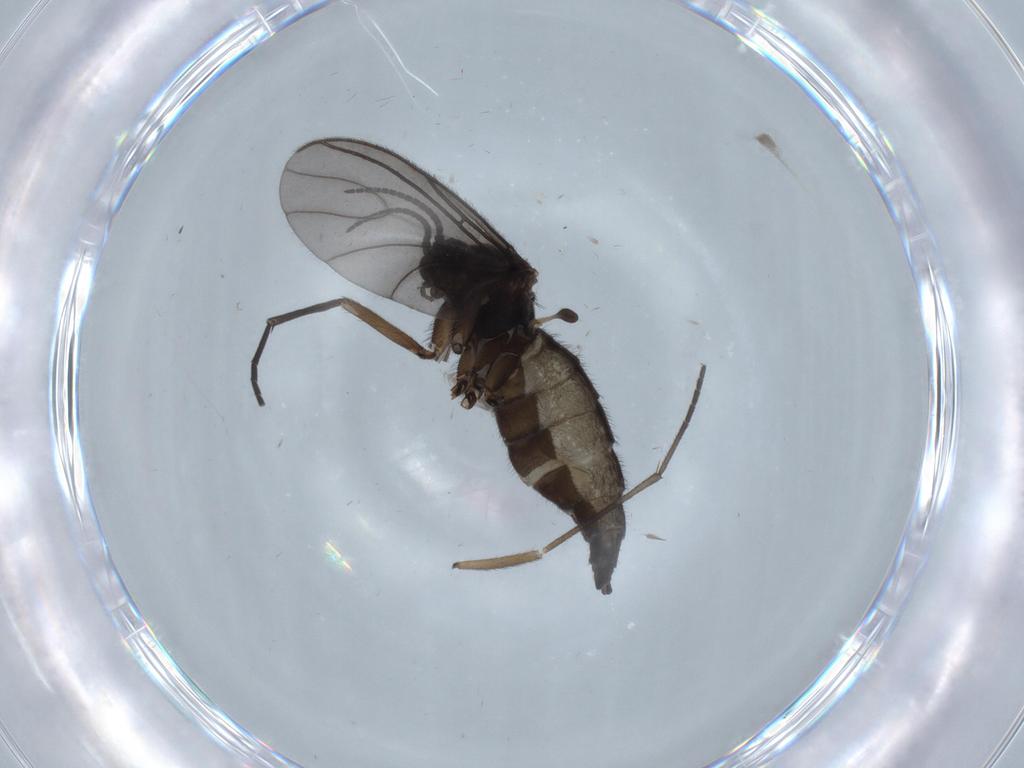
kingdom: Animalia
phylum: Arthropoda
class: Insecta
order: Diptera
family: Sciaridae
